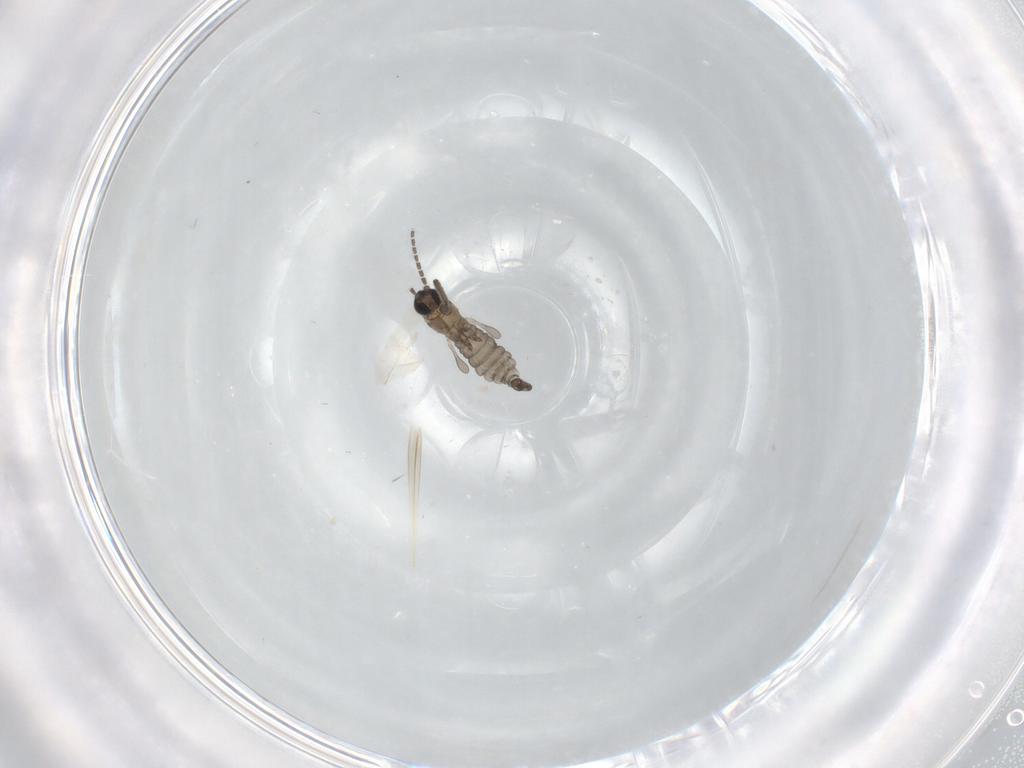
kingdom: Animalia
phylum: Arthropoda
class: Insecta
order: Diptera
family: Sciaridae
